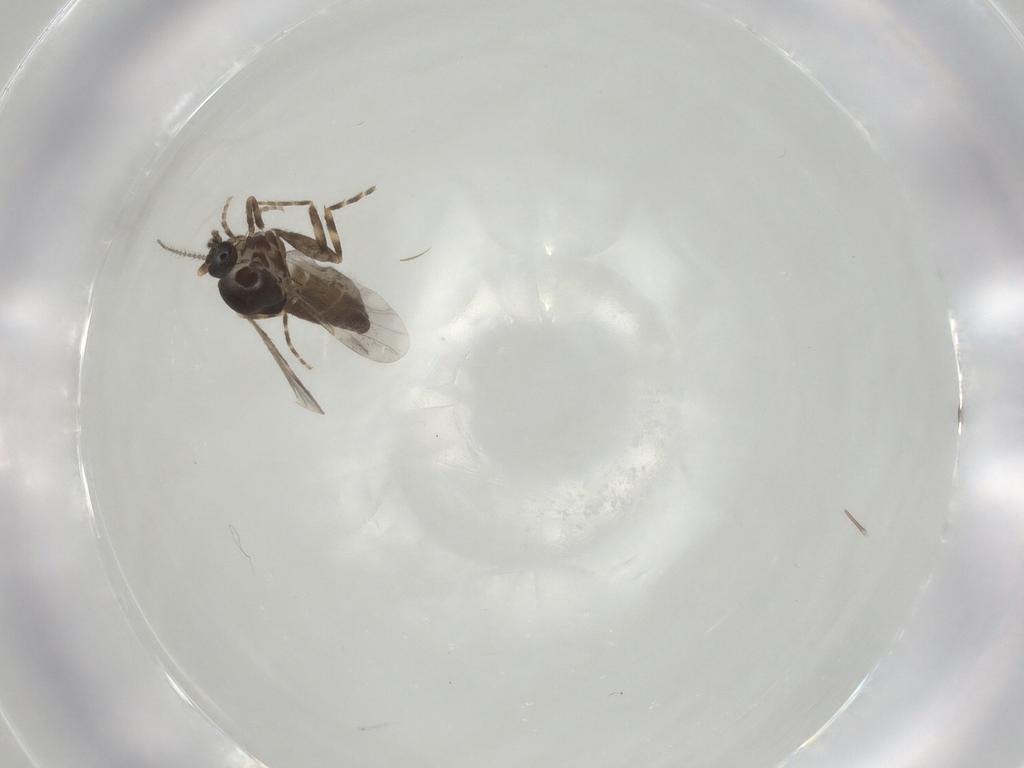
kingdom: Animalia
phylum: Arthropoda
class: Insecta
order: Diptera
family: Ceratopogonidae
